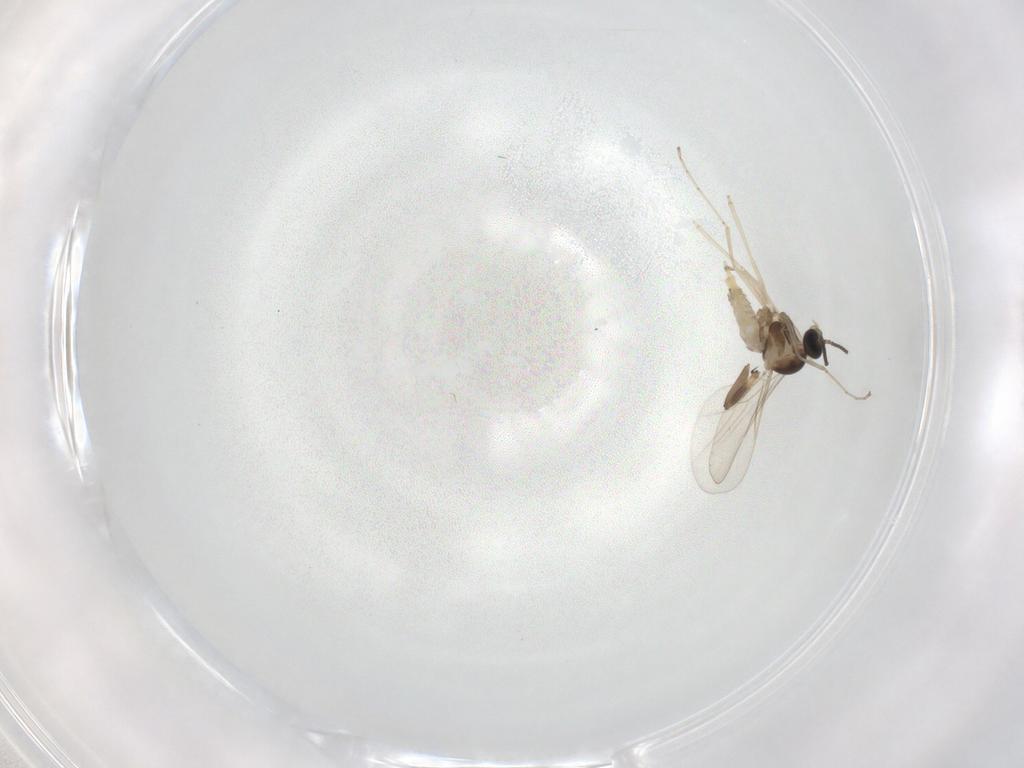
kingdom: Animalia
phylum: Arthropoda
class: Insecta
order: Diptera
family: Cecidomyiidae
